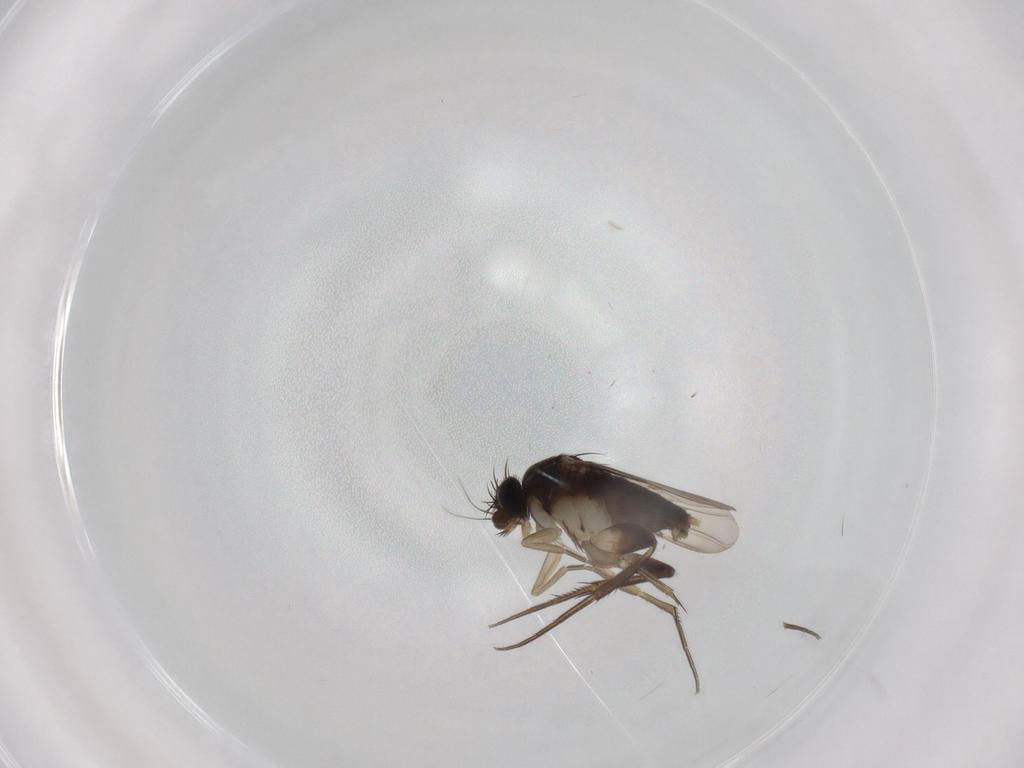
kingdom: Animalia
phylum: Arthropoda
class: Insecta
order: Diptera
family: Phoridae
